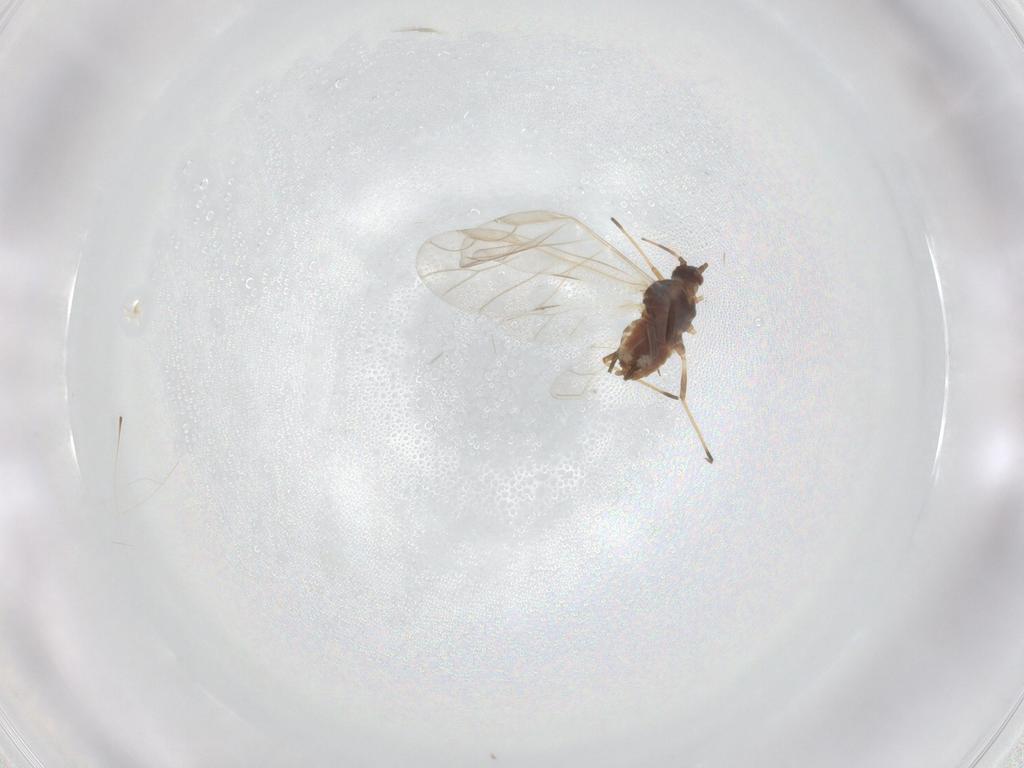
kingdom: Animalia
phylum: Arthropoda
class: Insecta
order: Hemiptera
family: Aphididae
